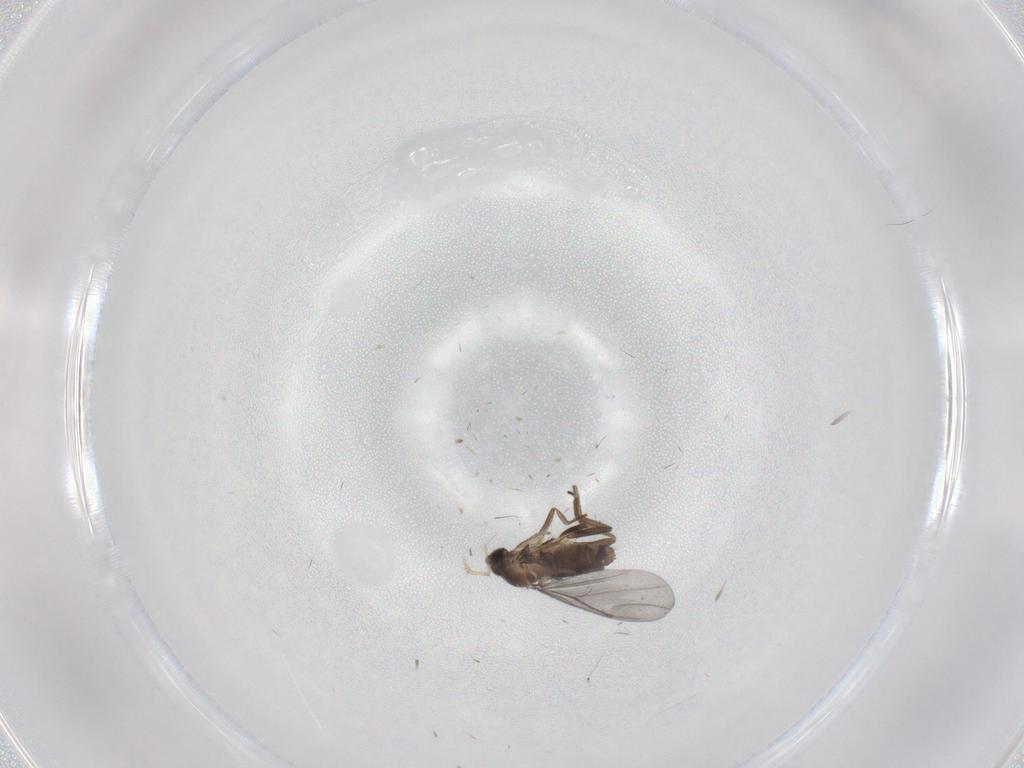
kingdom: Animalia
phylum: Arthropoda
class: Insecta
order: Diptera
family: Phoridae
